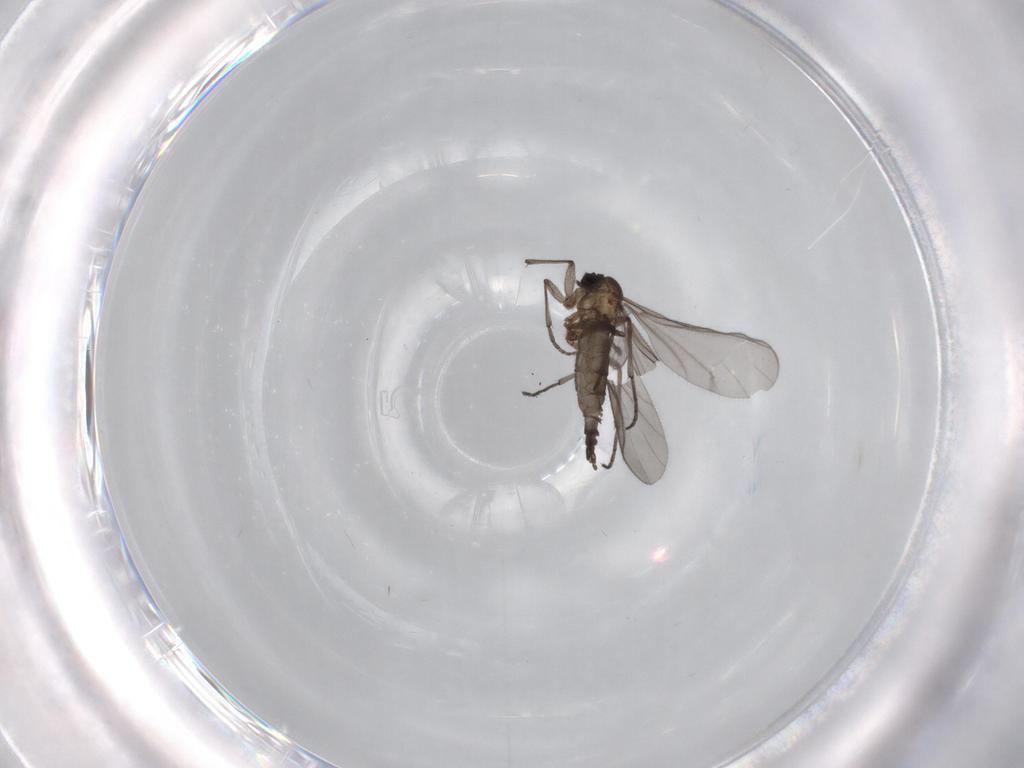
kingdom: Animalia
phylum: Arthropoda
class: Insecta
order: Diptera
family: Sciaridae
